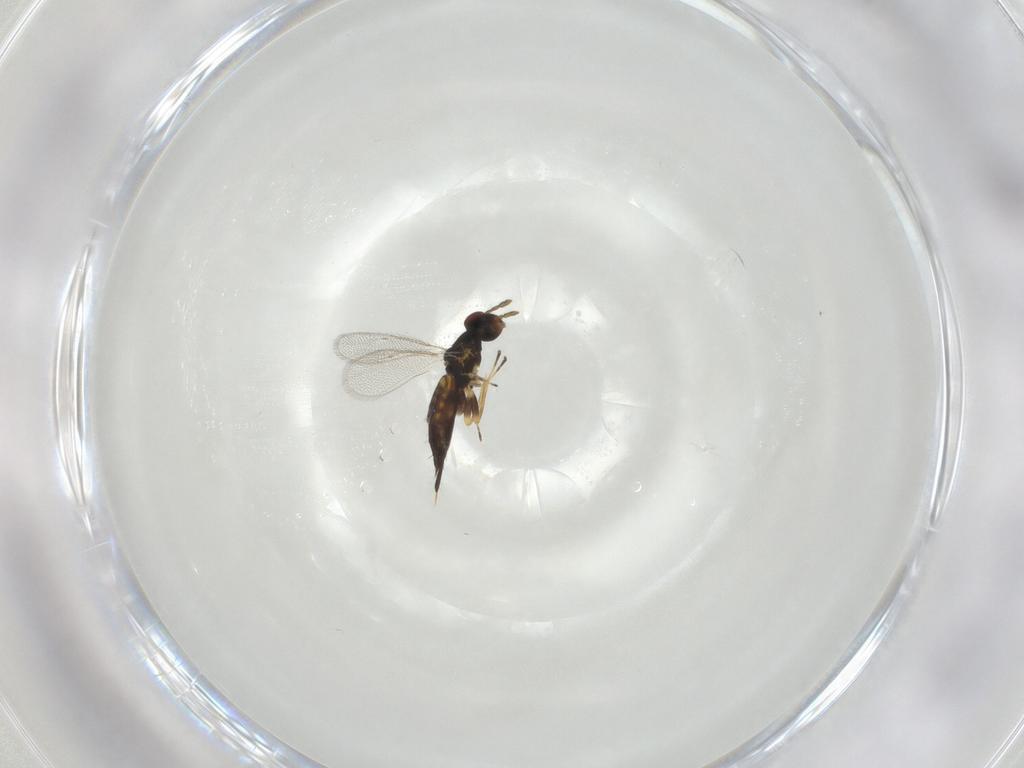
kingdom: Animalia
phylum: Arthropoda
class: Insecta
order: Hymenoptera
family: Eulophidae
